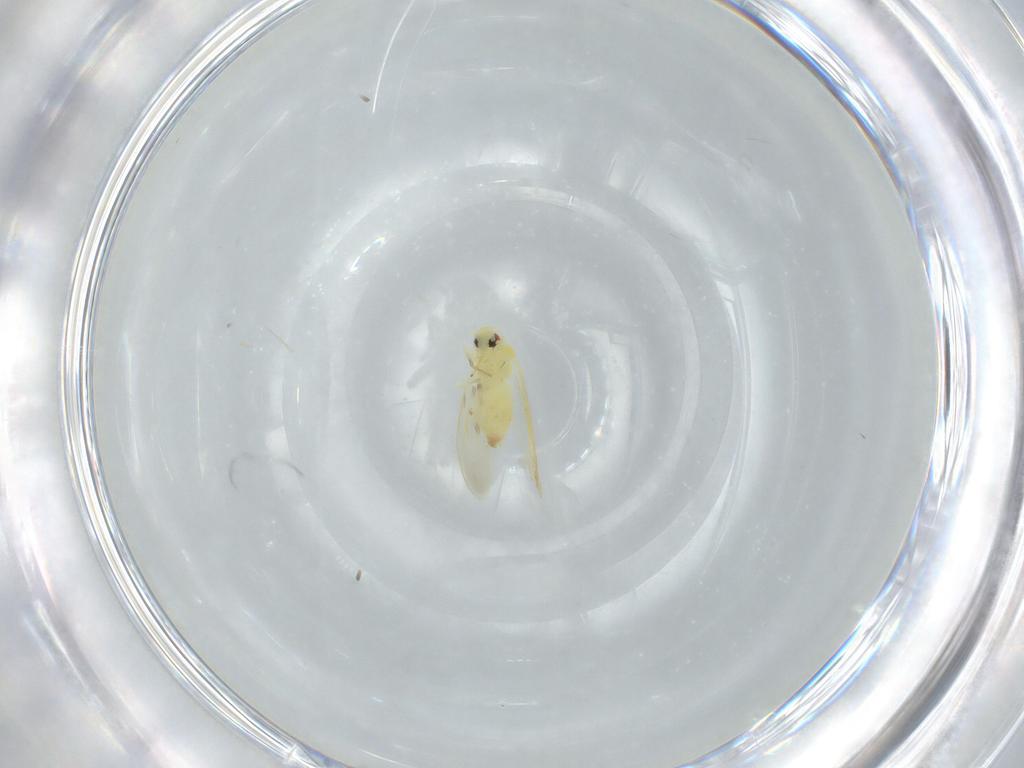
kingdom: Animalia
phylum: Arthropoda
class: Insecta
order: Hemiptera
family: Aleyrodidae
